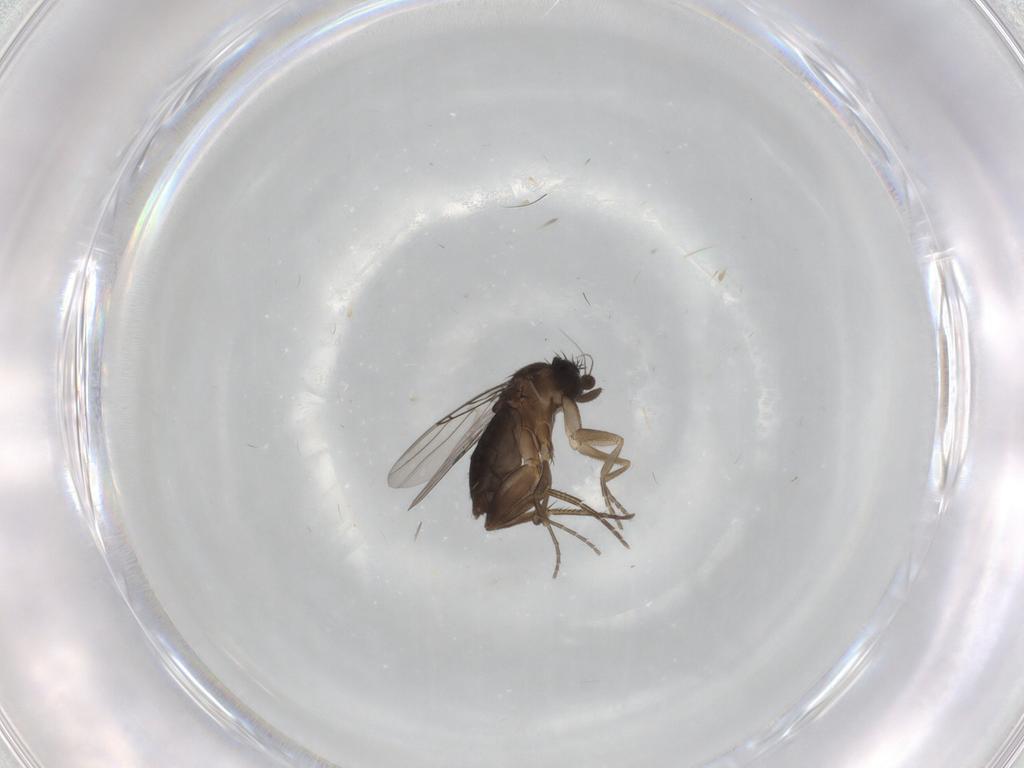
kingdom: Animalia
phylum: Arthropoda
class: Insecta
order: Diptera
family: Phoridae
